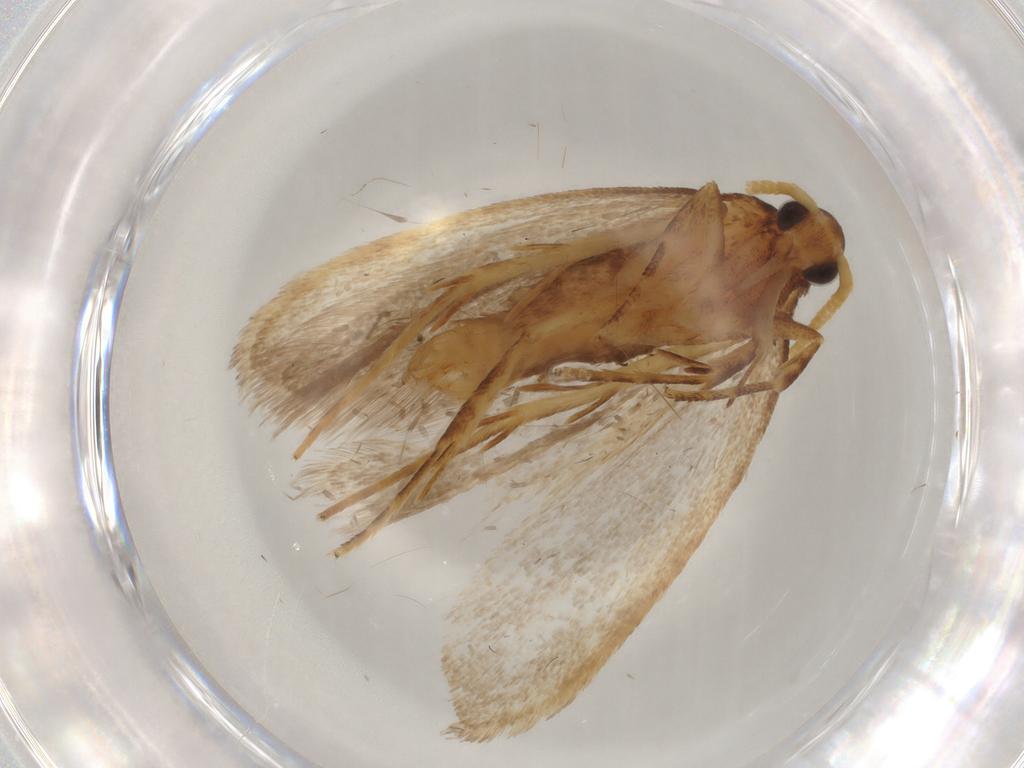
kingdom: Animalia
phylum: Arthropoda
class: Insecta
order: Lepidoptera
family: Lecithoceridae
